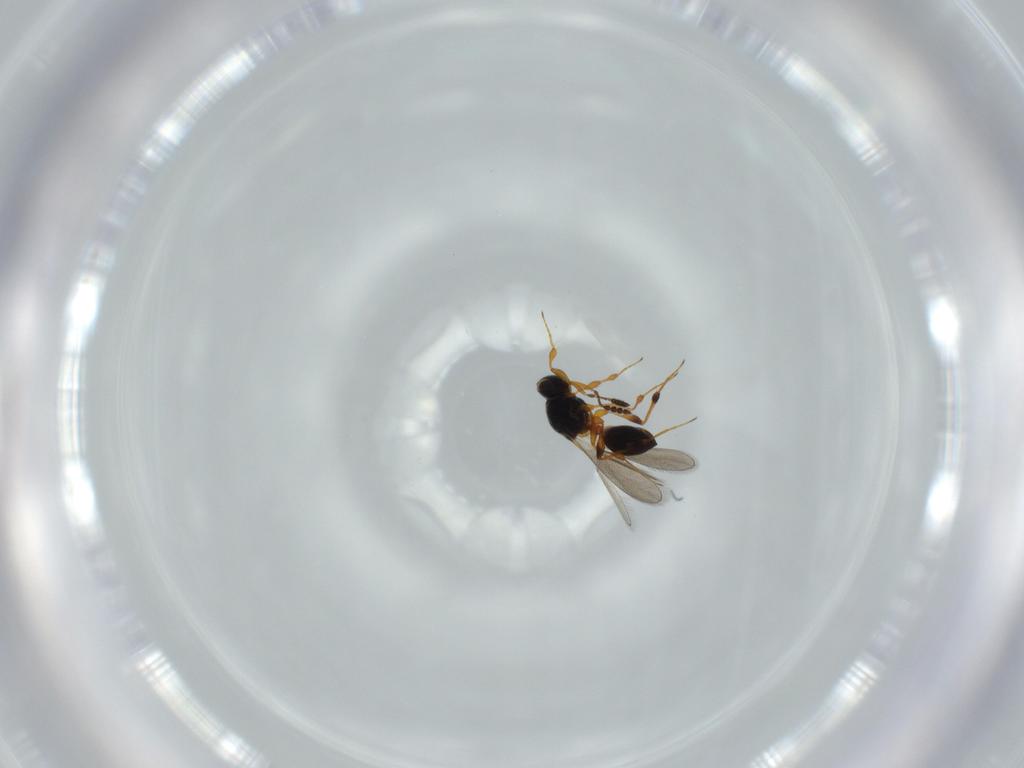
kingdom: Animalia
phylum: Arthropoda
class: Insecta
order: Hymenoptera
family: Platygastridae
